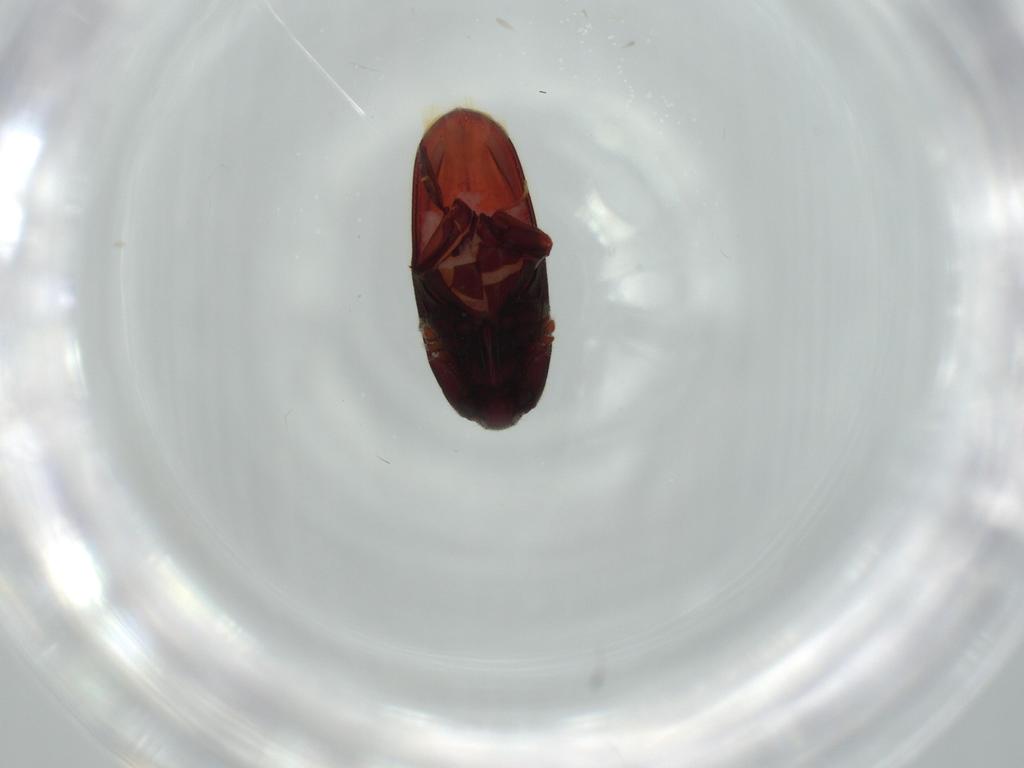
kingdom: Animalia
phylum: Arthropoda
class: Insecta
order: Coleoptera
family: Throscidae
